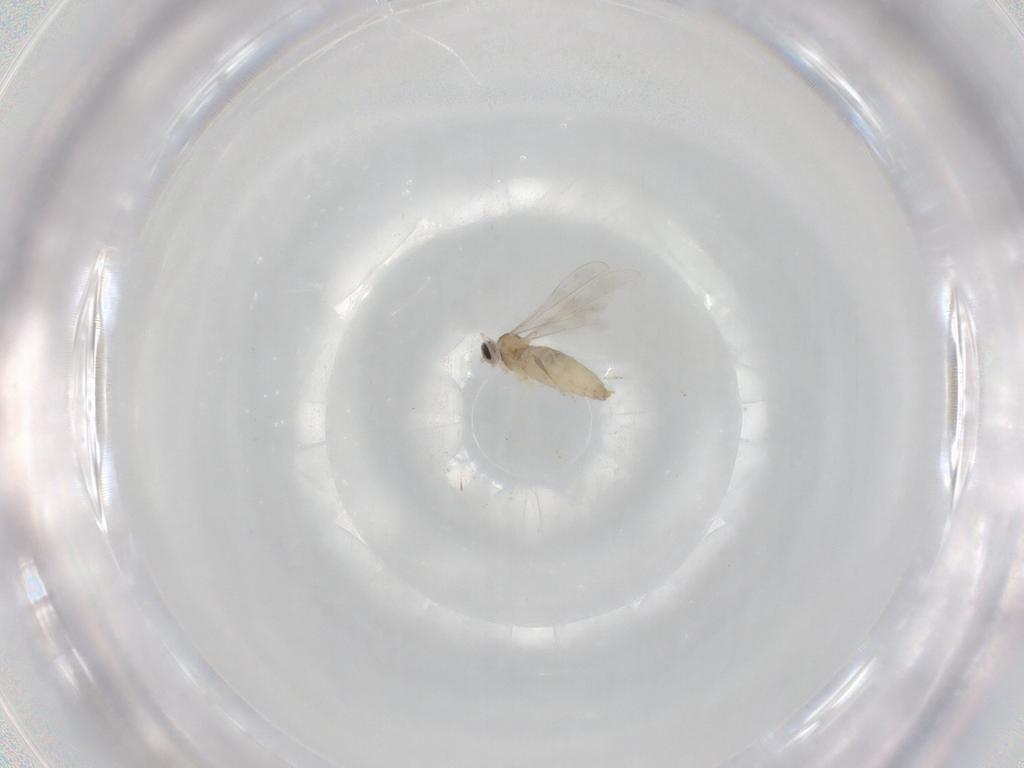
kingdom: Animalia
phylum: Arthropoda
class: Insecta
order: Diptera
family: Cecidomyiidae
